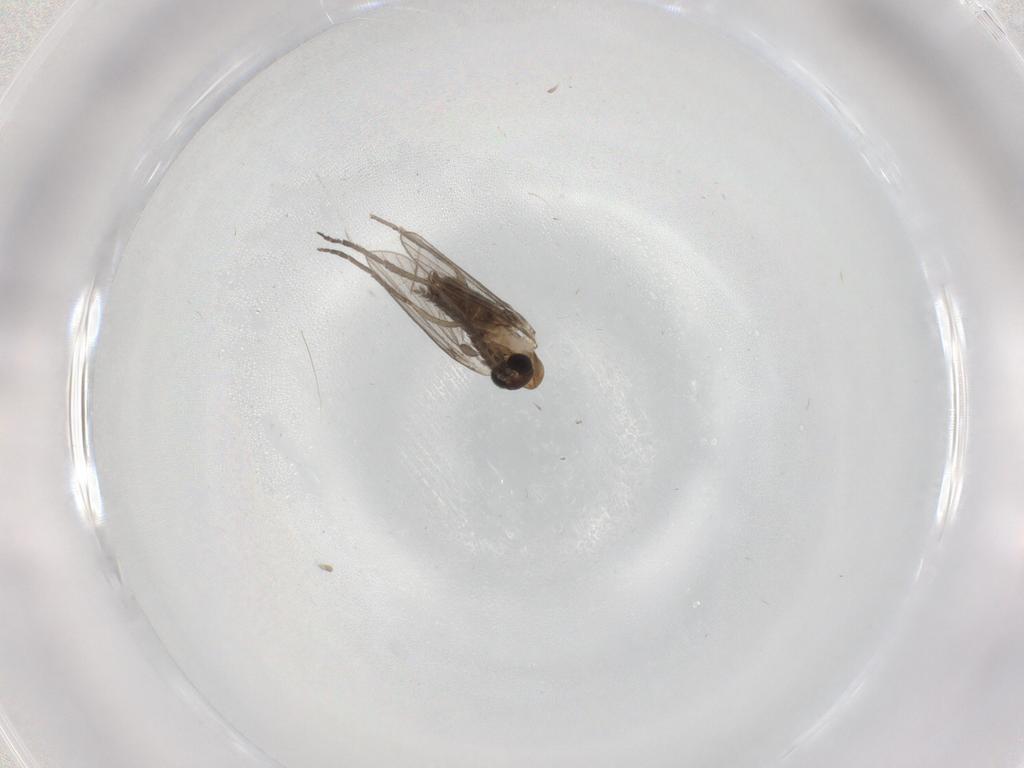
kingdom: Animalia
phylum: Arthropoda
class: Insecta
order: Diptera
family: Psychodidae
